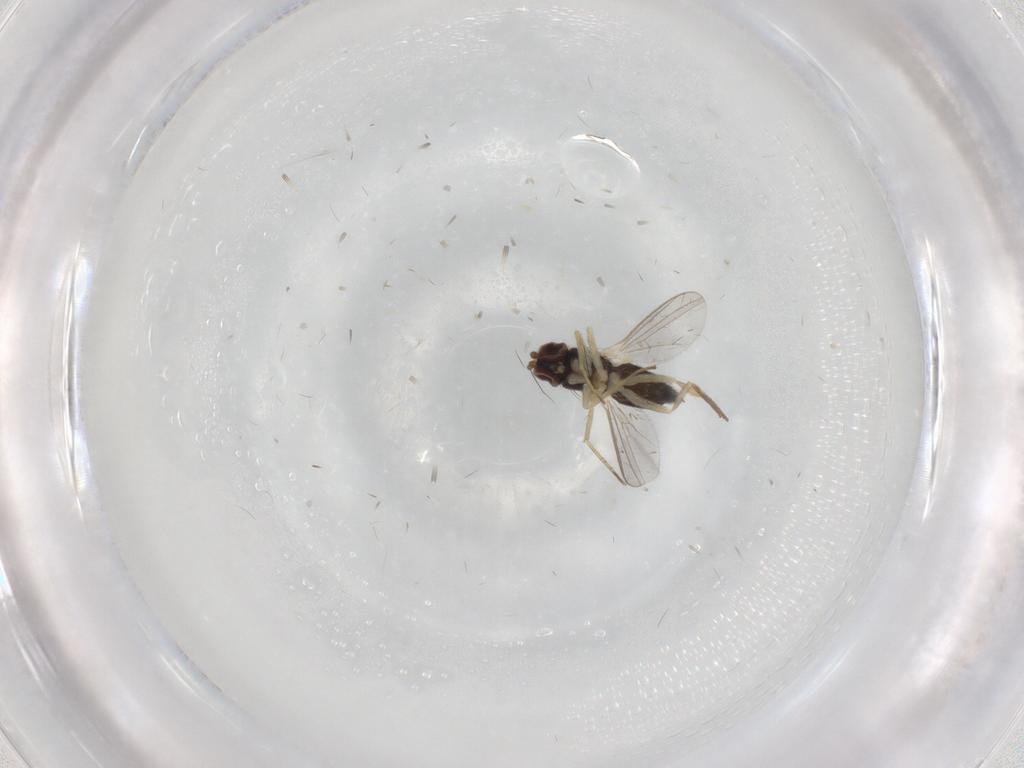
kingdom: Animalia
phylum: Arthropoda
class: Insecta
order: Diptera
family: Dolichopodidae
